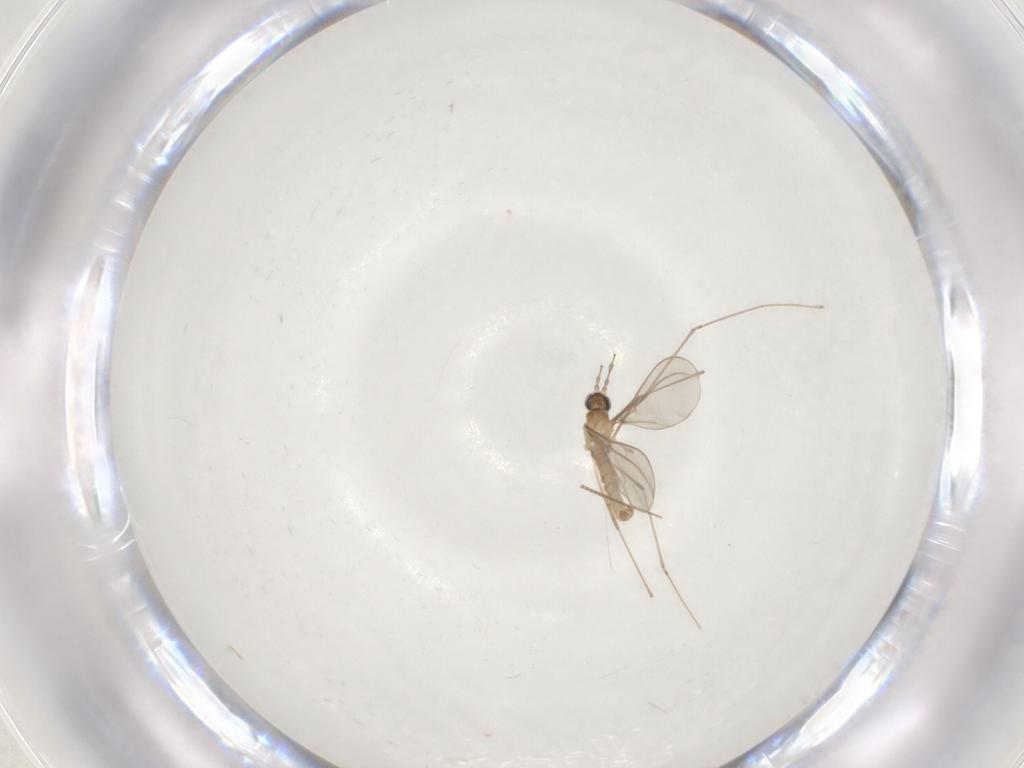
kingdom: Animalia
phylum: Arthropoda
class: Insecta
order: Diptera
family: Cecidomyiidae
